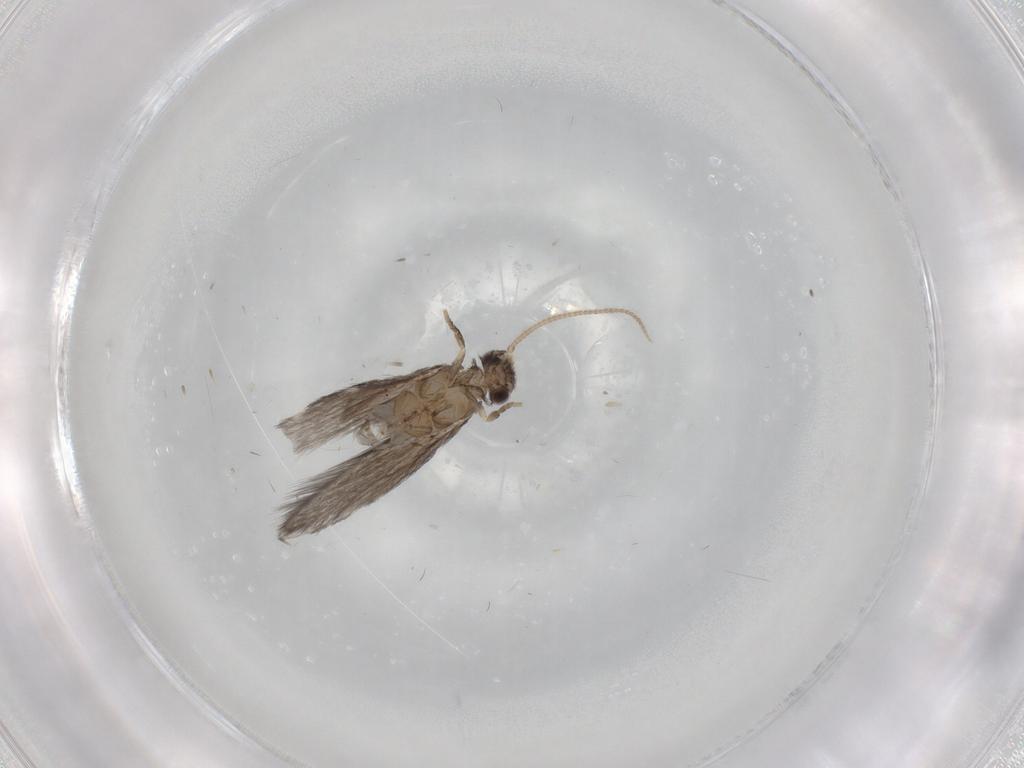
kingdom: Animalia
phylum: Arthropoda
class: Insecta
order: Trichoptera
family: Hydroptilidae
